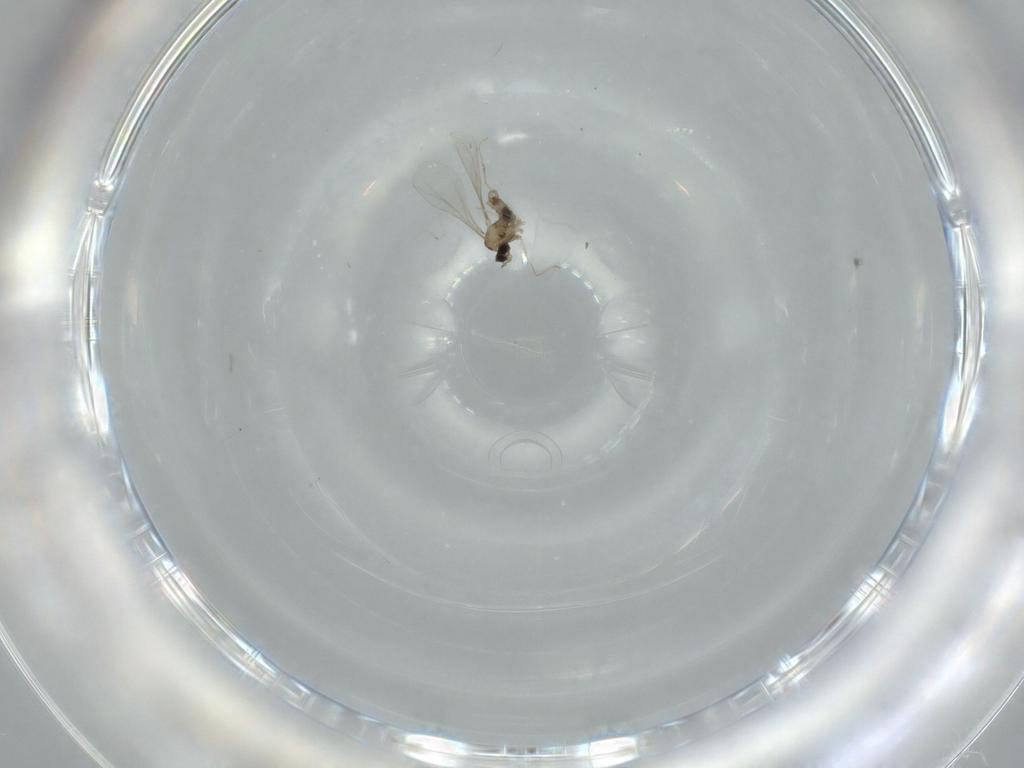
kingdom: Animalia
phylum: Arthropoda
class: Insecta
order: Diptera
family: Cecidomyiidae
